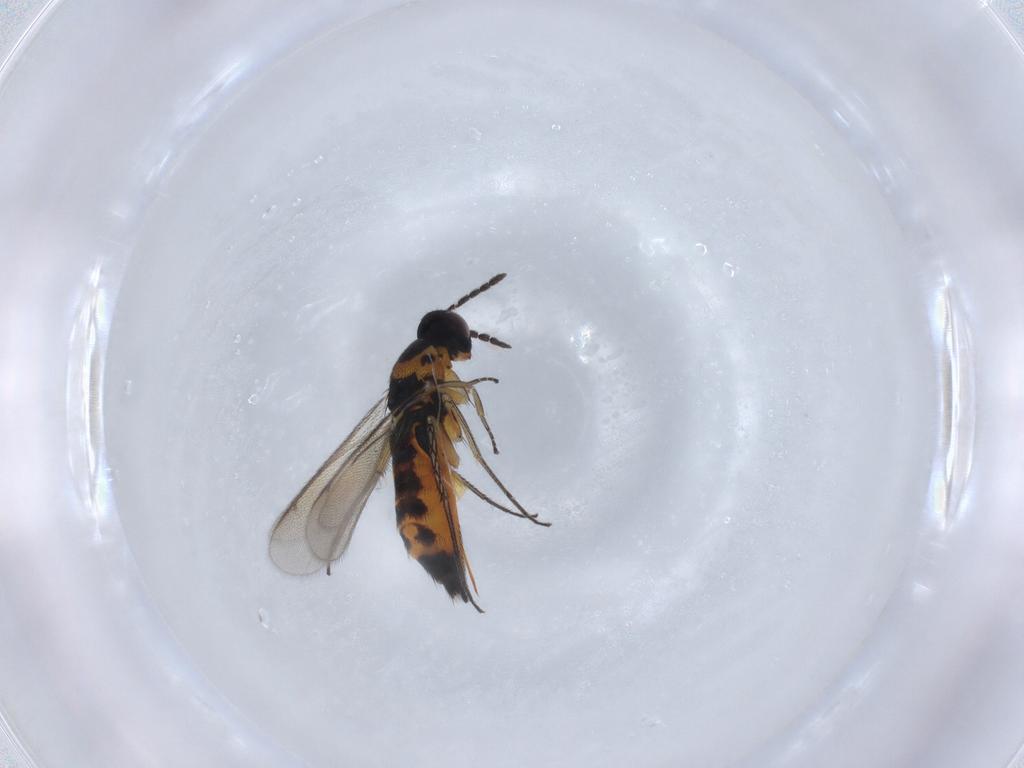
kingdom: Animalia
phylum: Arthropoda
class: Insecta
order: Hymenoptera
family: Eulophidae
